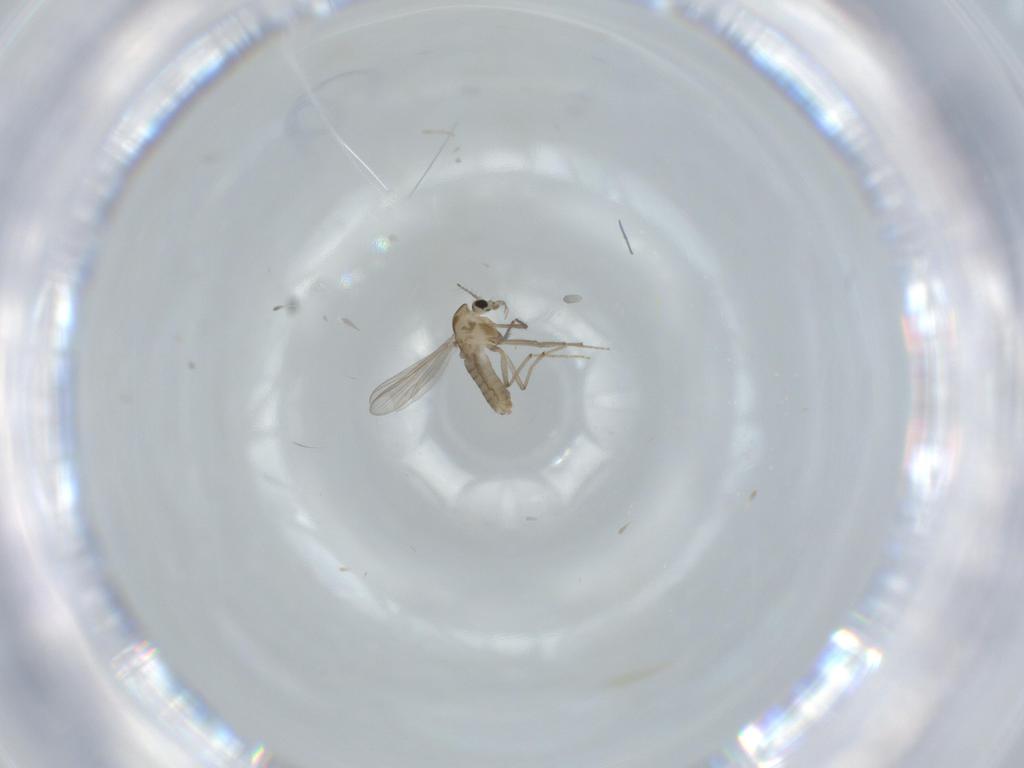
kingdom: Animalia
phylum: Arthropoda
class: Insecta
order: Diptera
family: Chironomidae
